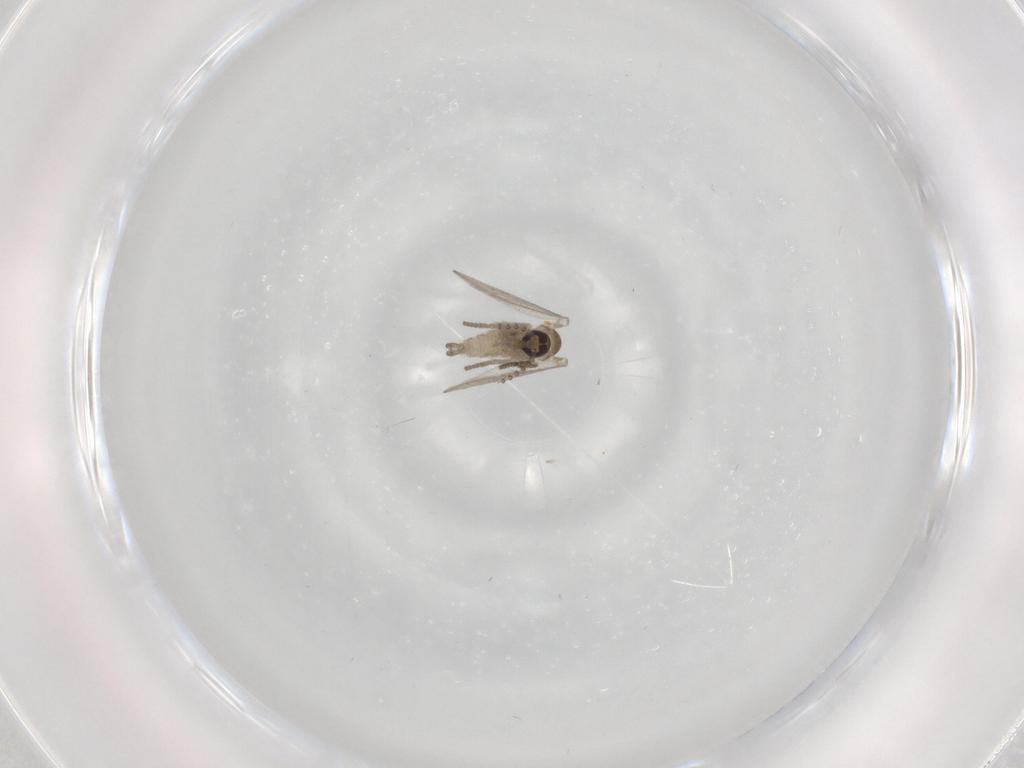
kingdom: Animalia
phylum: Arthropoda
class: Insecta
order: Diptera
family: Psychodidae
